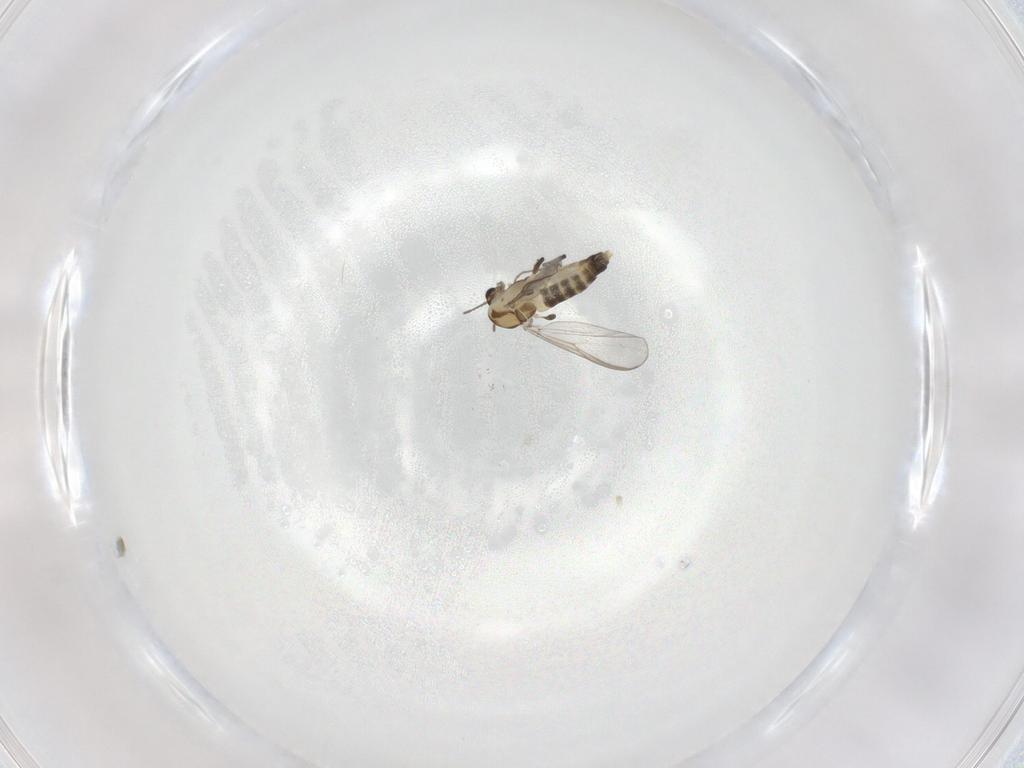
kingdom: Animalia
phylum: Arthropoda
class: Insecta
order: Diptera
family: Chironomidae
